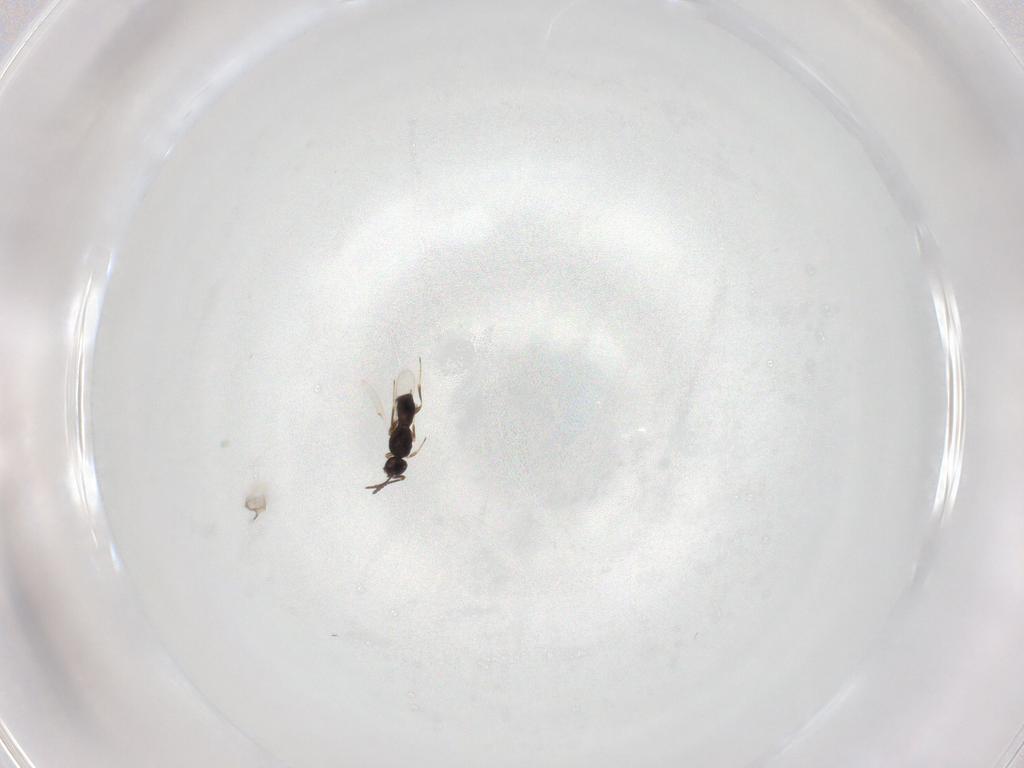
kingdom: Animalia
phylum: Arthropoda
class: Insecta
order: Hymenoptera
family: Scelionidae
